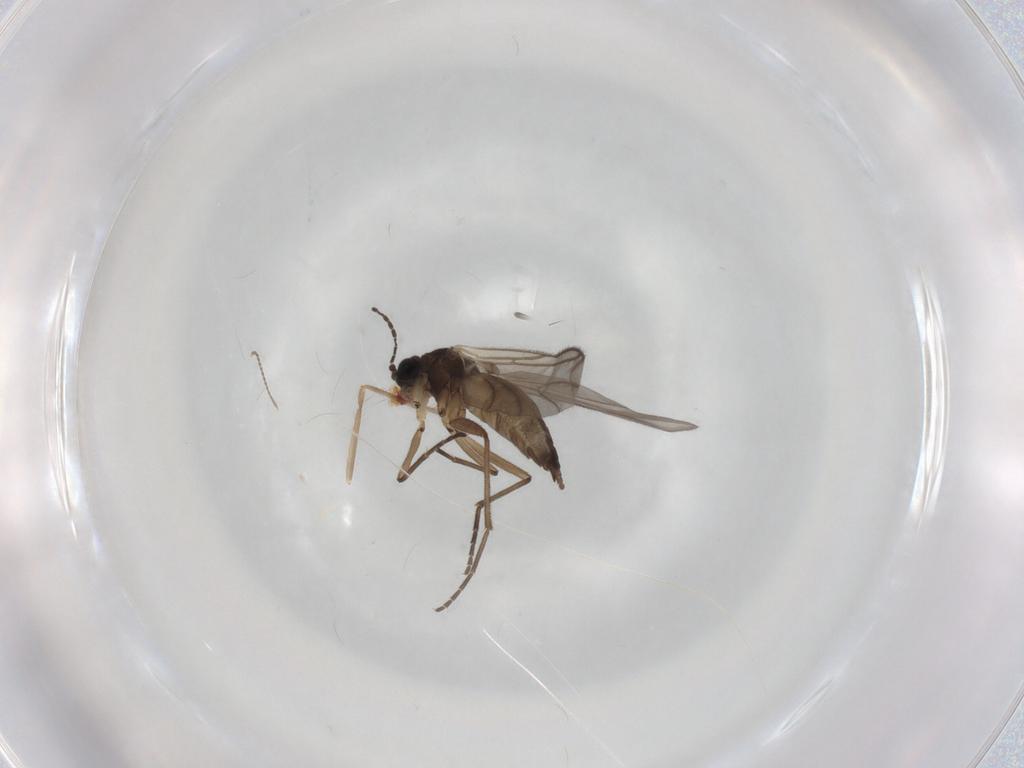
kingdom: Animalia
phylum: Arthropoda
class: Insecta
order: Diptera
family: Sciaridae
